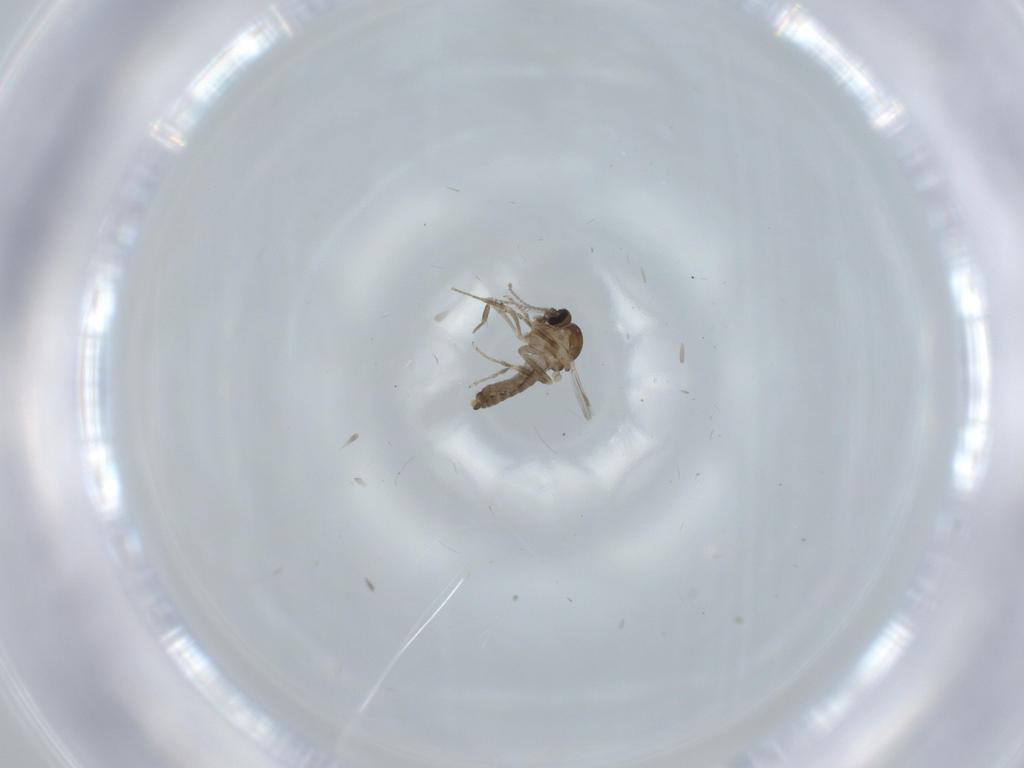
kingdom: Animalia
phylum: Arthropoda
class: Insecta
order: Diptera
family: Ceratopogonidae
